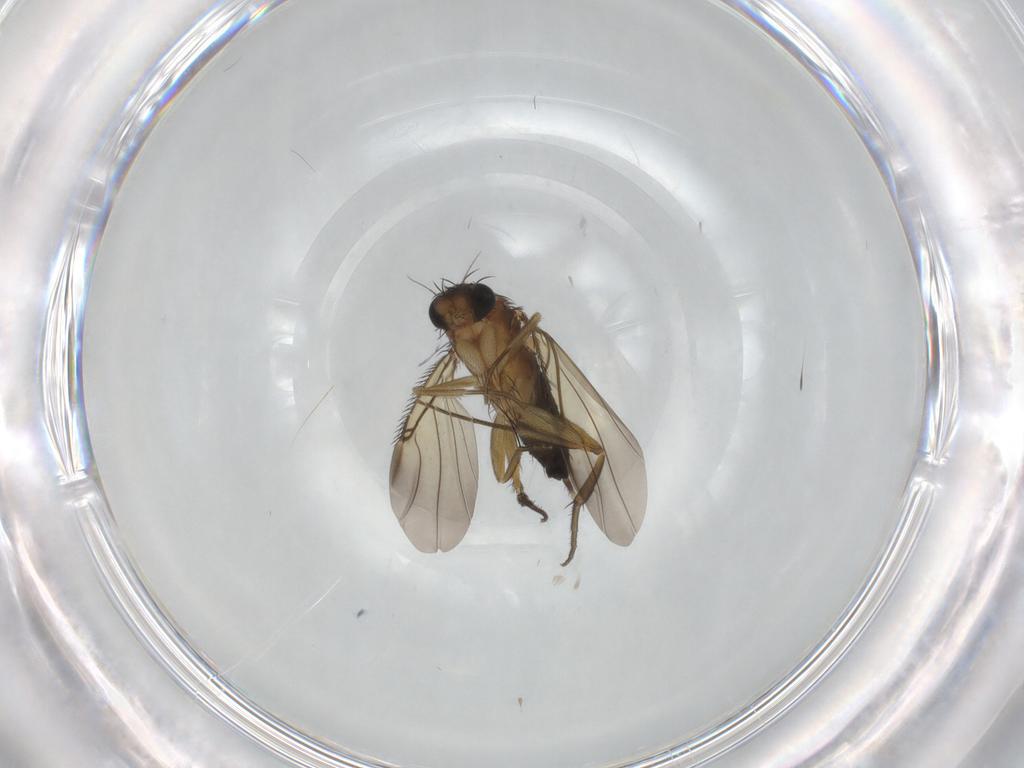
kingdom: Animalia
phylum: Arthropoda
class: Insecta
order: Diptera
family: Phoridae
